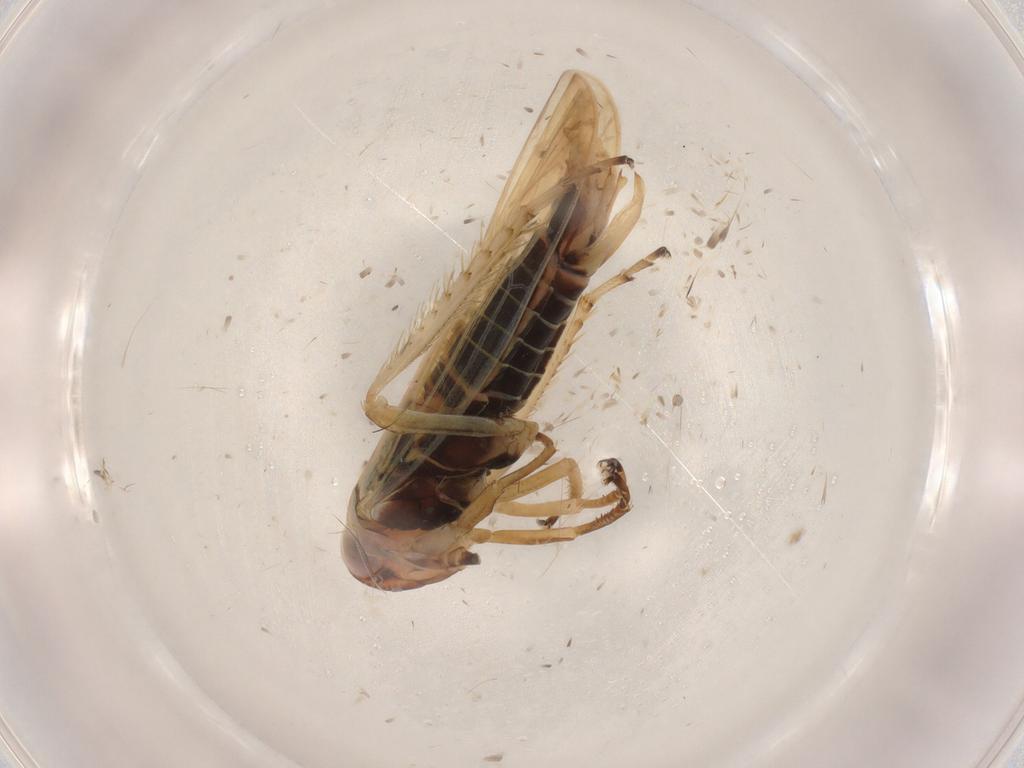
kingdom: Animalia
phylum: Arthropoda
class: Insecta
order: Hemiptera
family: Cicadellidae
